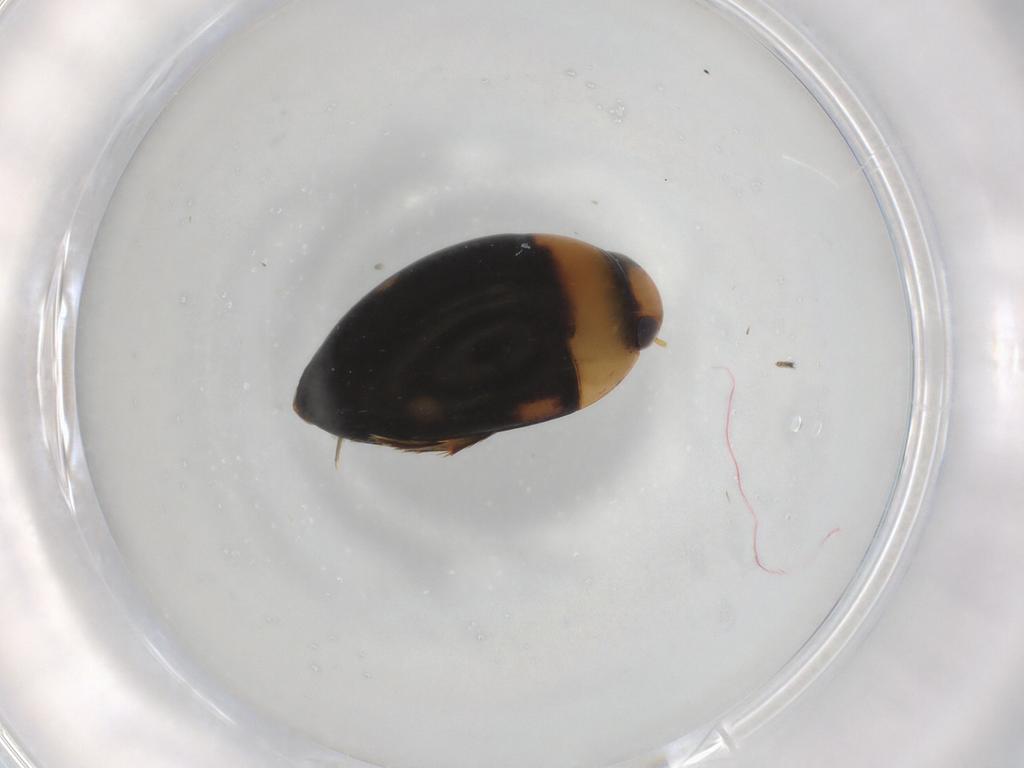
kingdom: Animalia
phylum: Arthropoda
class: Insecta
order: Coleoptera
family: Noteridae
